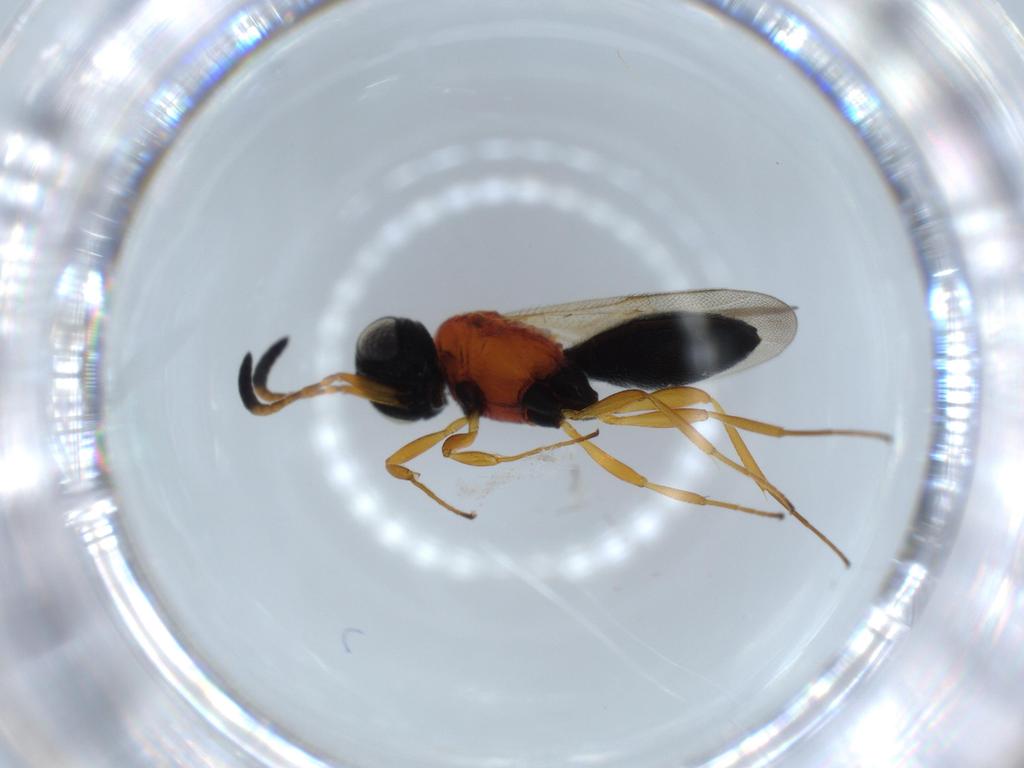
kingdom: Animalia
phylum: Arthropoda
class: Insecta
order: Hymenoptera
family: Scelionidae
